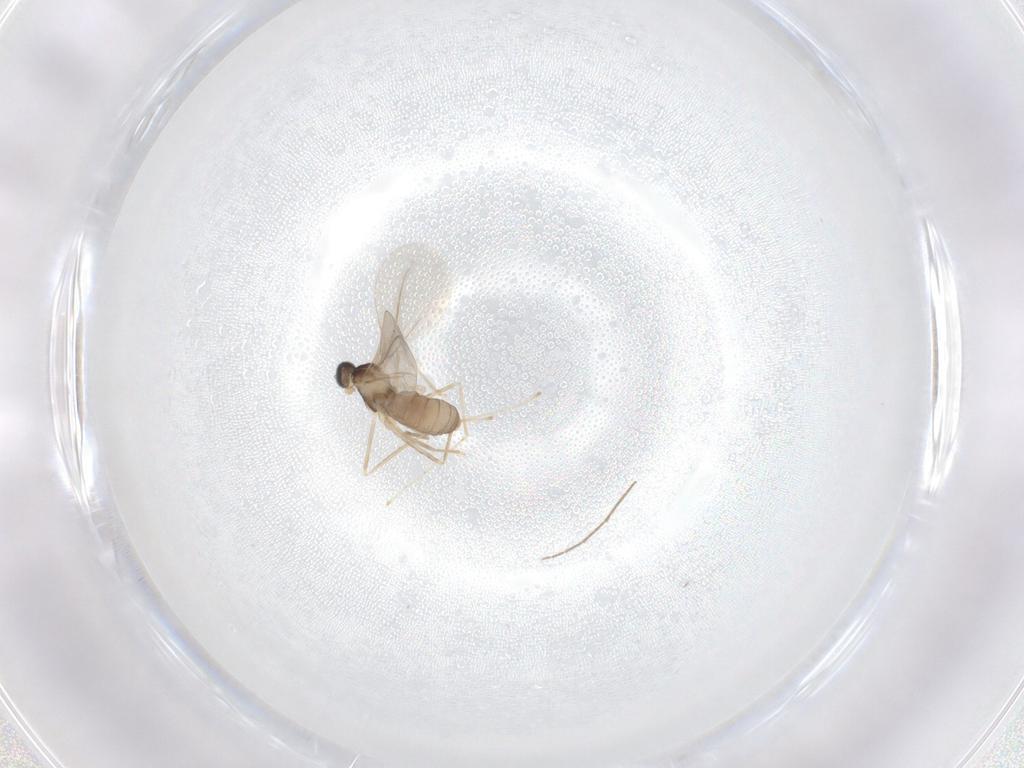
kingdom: Animalia
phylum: Arthropoda
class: Insecta
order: Diptera
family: Cecidomyiidae
